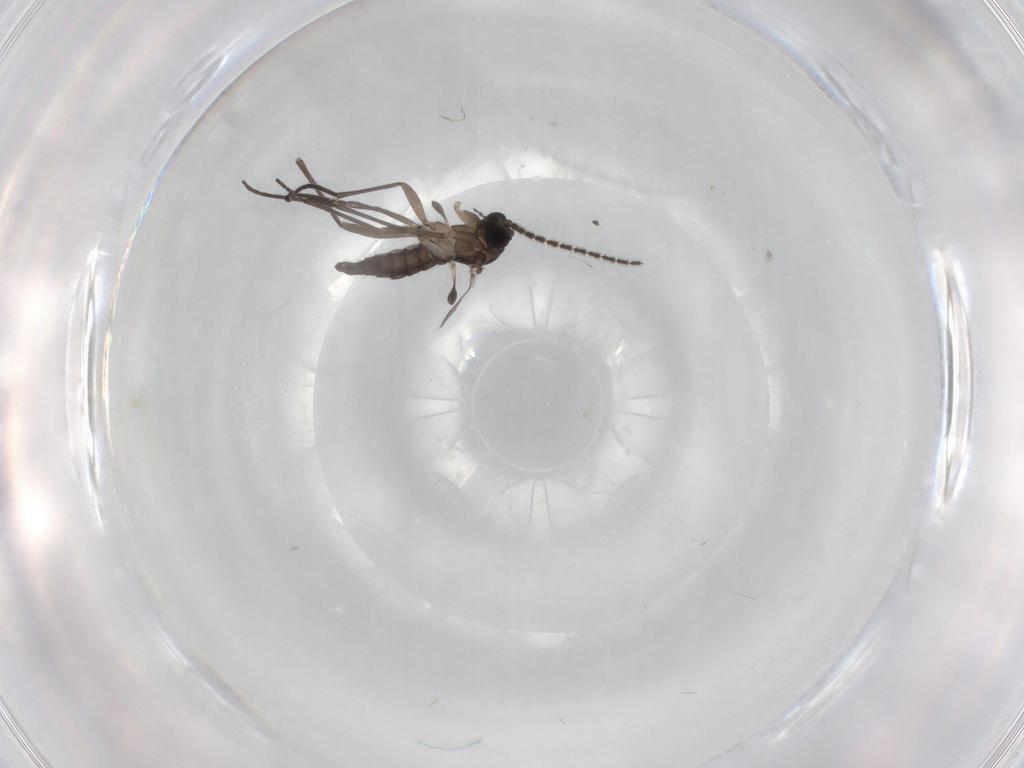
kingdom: Animalia
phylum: Arthropoda
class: Insecta
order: Diptera
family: Sciaridae
